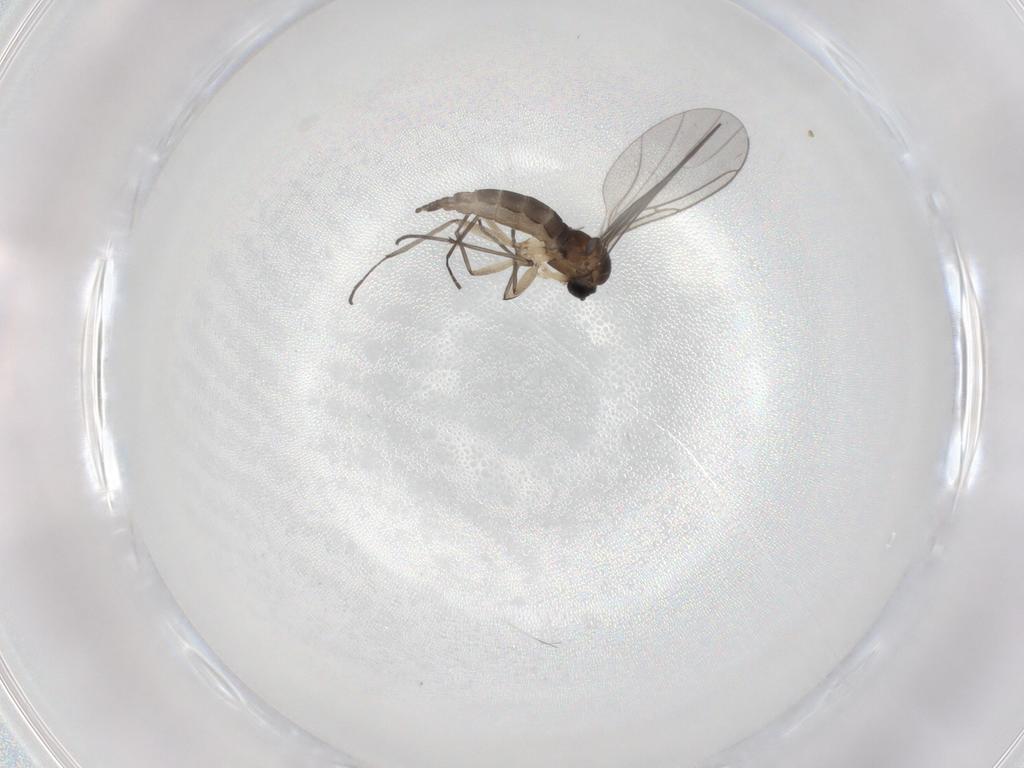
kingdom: Animalia
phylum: Arthropoda
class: Insecta
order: Diptera
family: Sciaridae
